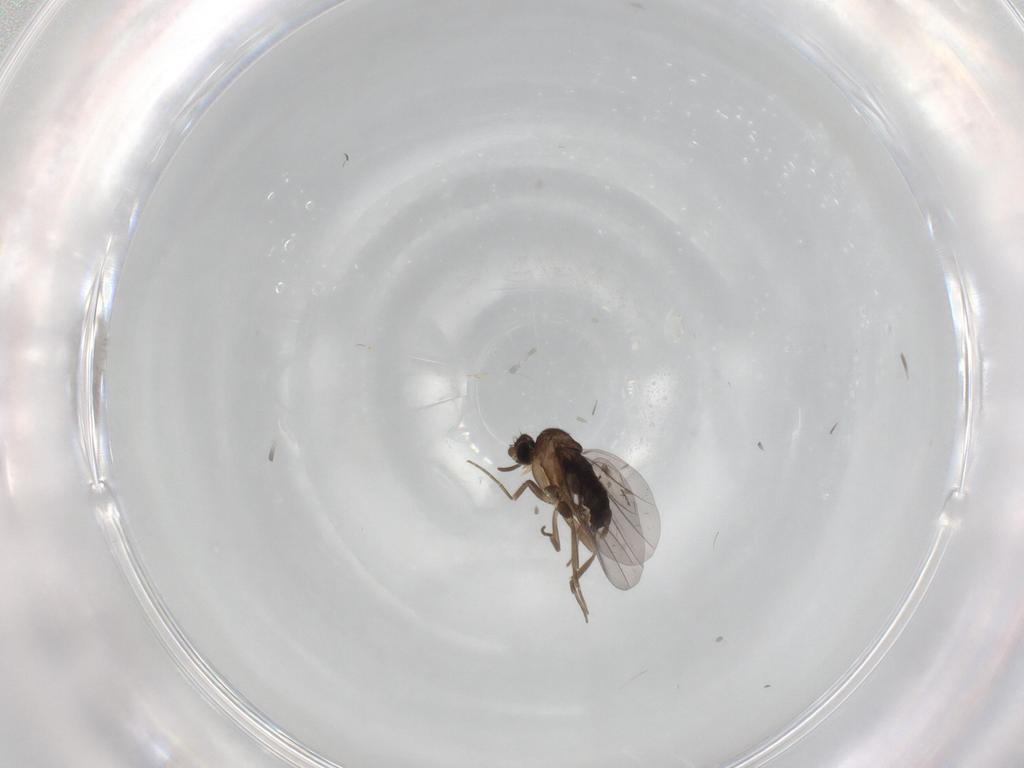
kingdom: Animalia
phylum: Arthropoda
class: Insecta
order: Diptera
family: Phoridae
